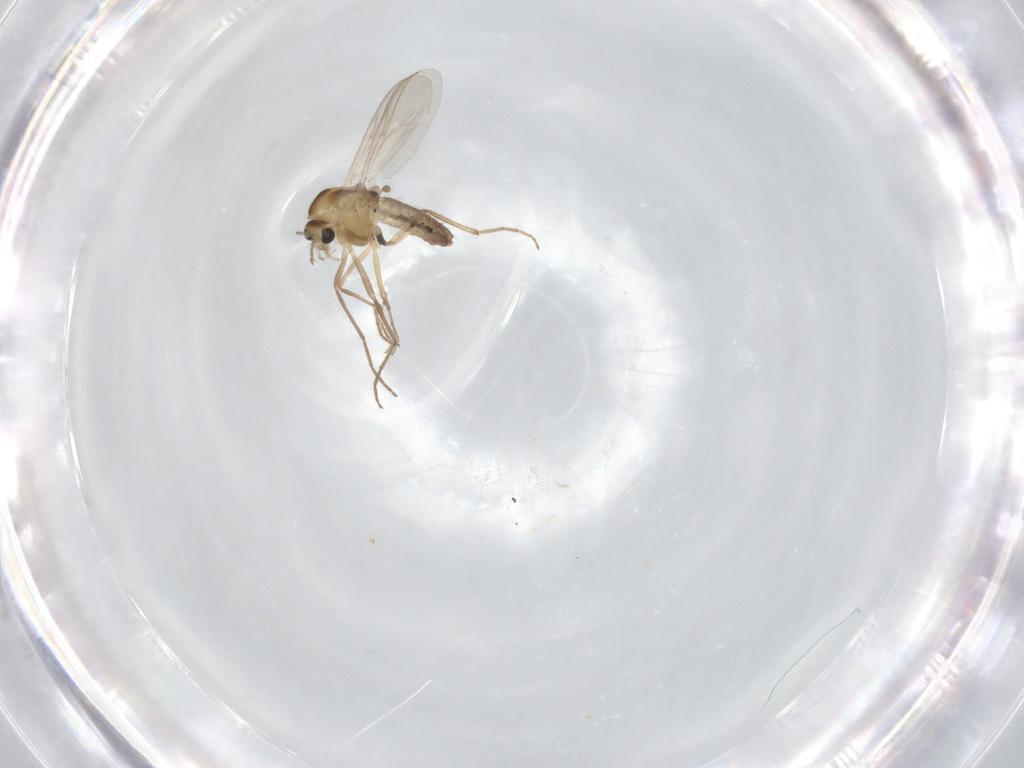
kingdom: Animalia
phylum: Arthropoda
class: Insecta
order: Diptera
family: Chironomidae
